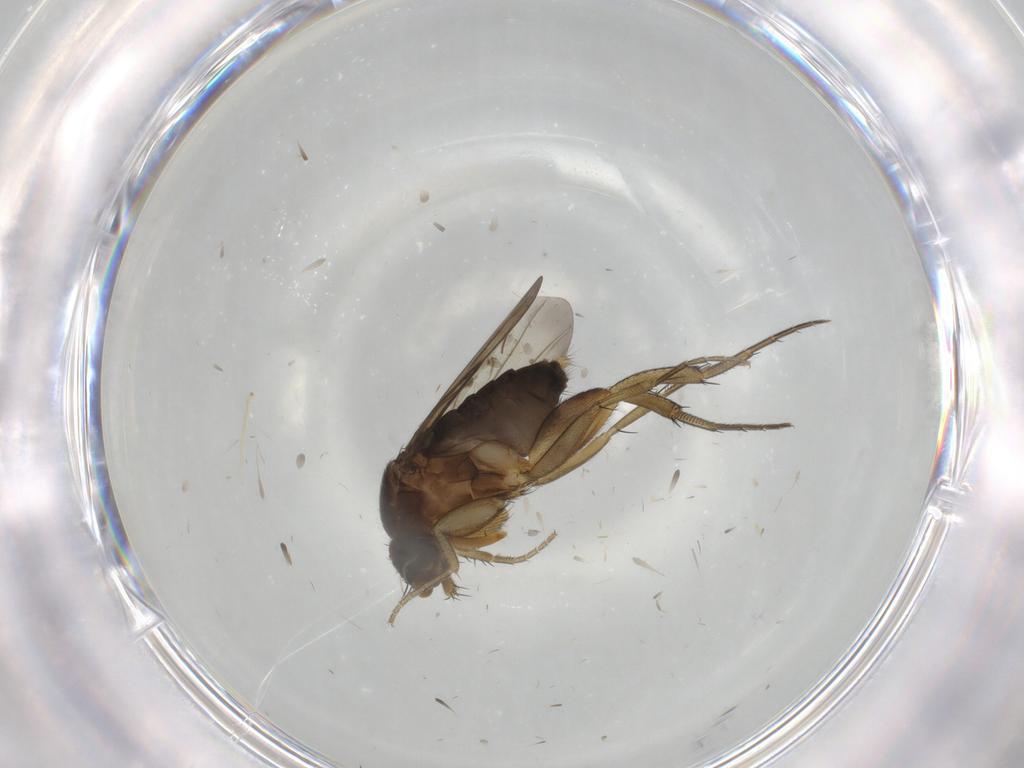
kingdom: Animalia
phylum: Arthropoda
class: Insecta
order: Diptera
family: Phoridae
